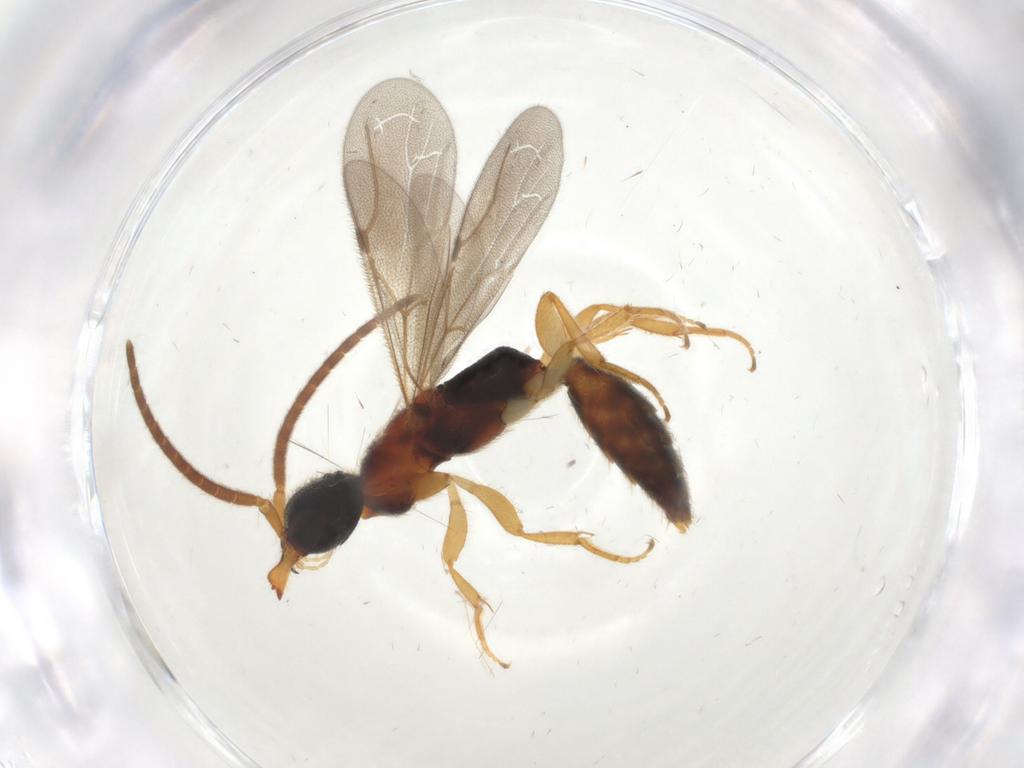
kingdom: Animalia
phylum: Arthropoda
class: Insecta
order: Hymenoptera
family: Bethylidae
